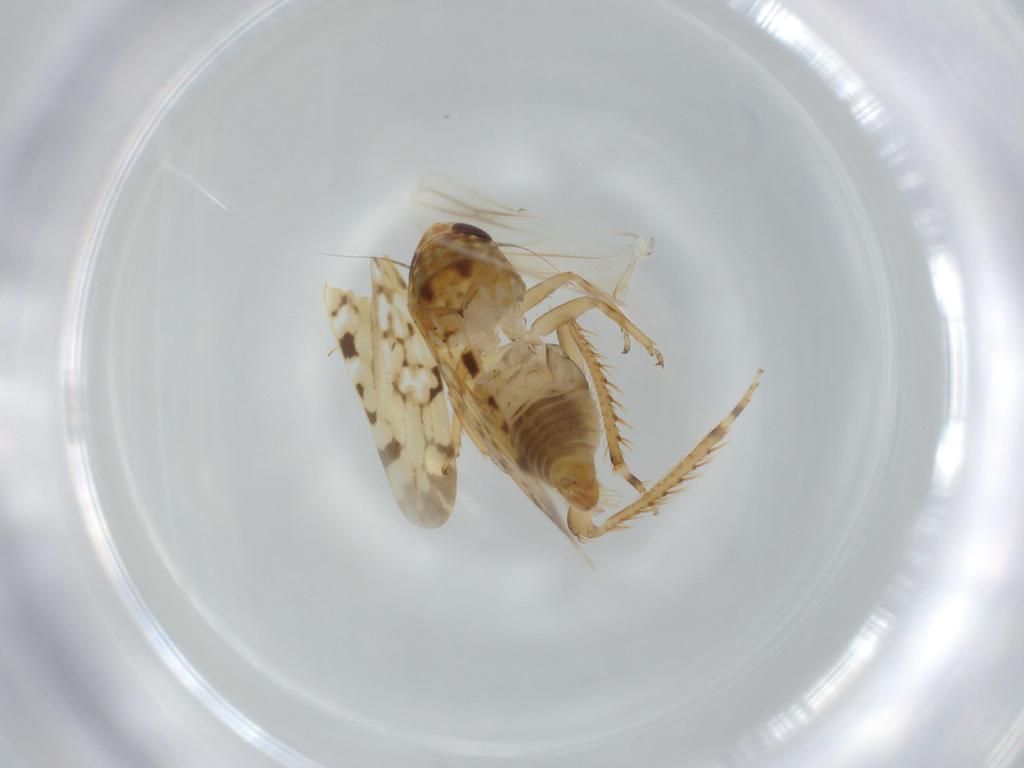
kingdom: Animalia
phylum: Arthropoda
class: Insecta
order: Hemiptera
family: Cicadellidae
